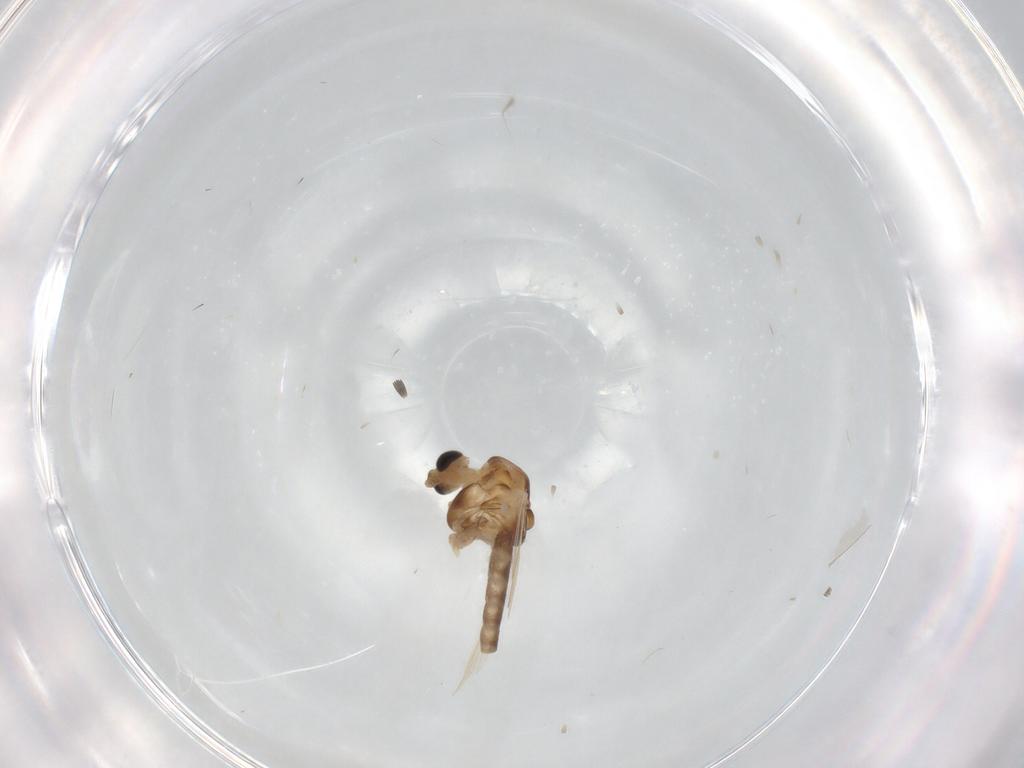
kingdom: Animalia
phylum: Arthropoda
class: Insecta
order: Diptera
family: Chironomidae
